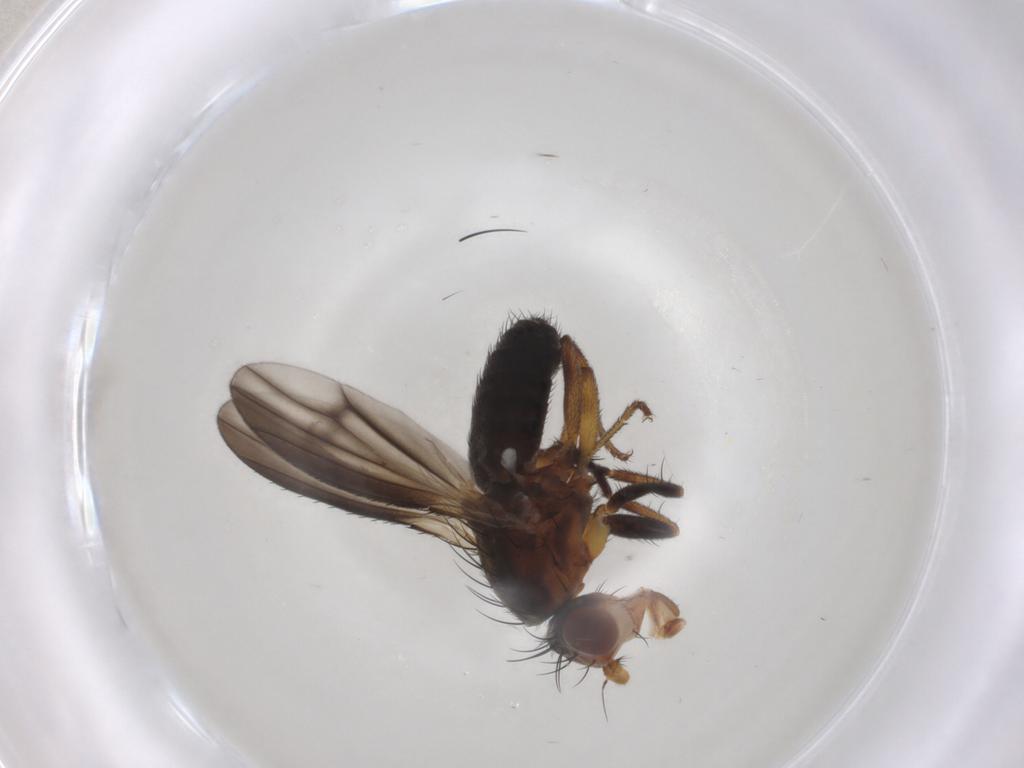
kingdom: Animalia
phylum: Arthropoda
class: Insecta
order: Diptera
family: Heleomyzidae
